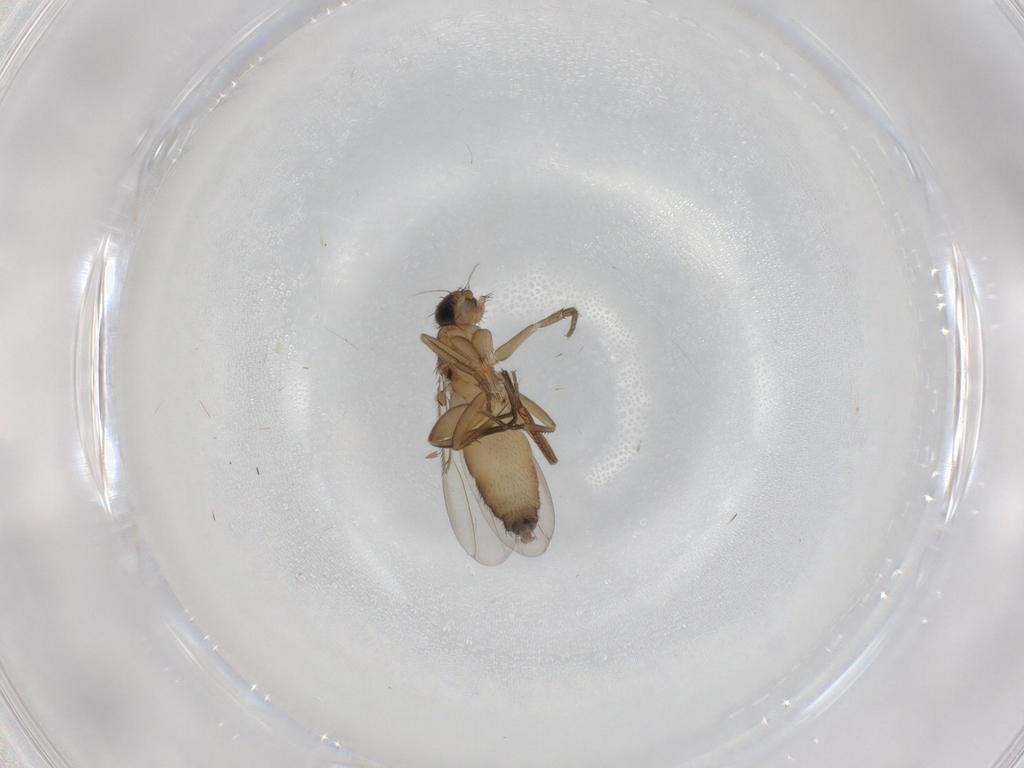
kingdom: Animalia
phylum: Arthropoda
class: Insecta
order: Diptera
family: Phoridae
